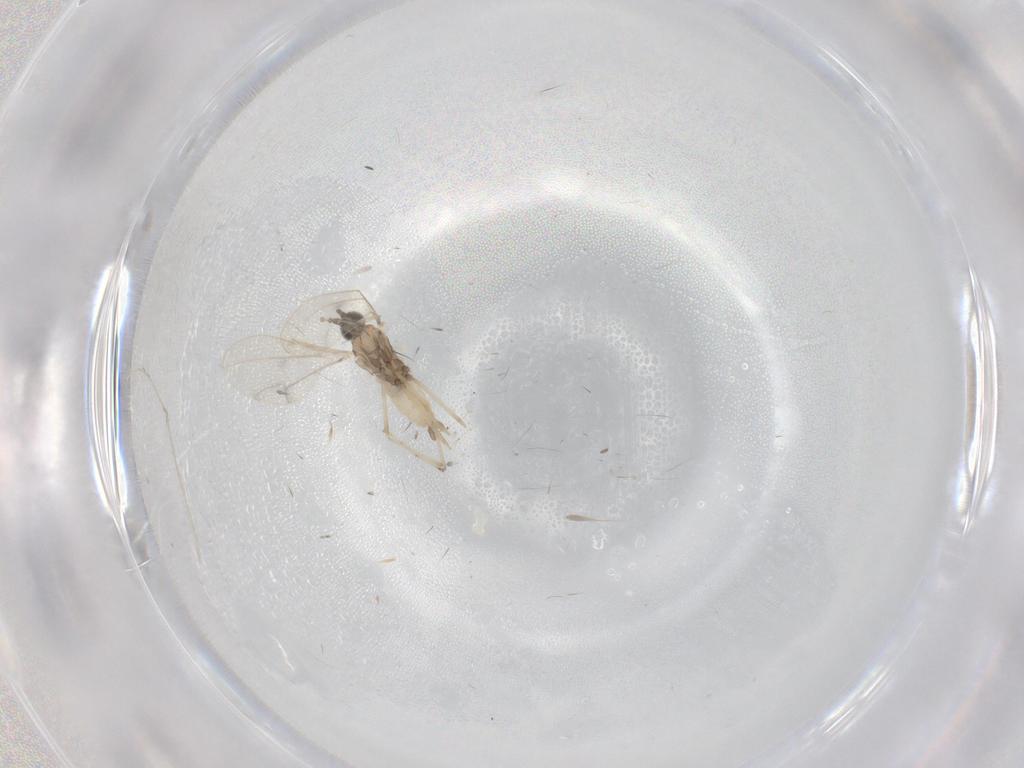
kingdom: Animalia
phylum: Arthropoda
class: Insecta
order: Diptera
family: Cecidomyiidae
